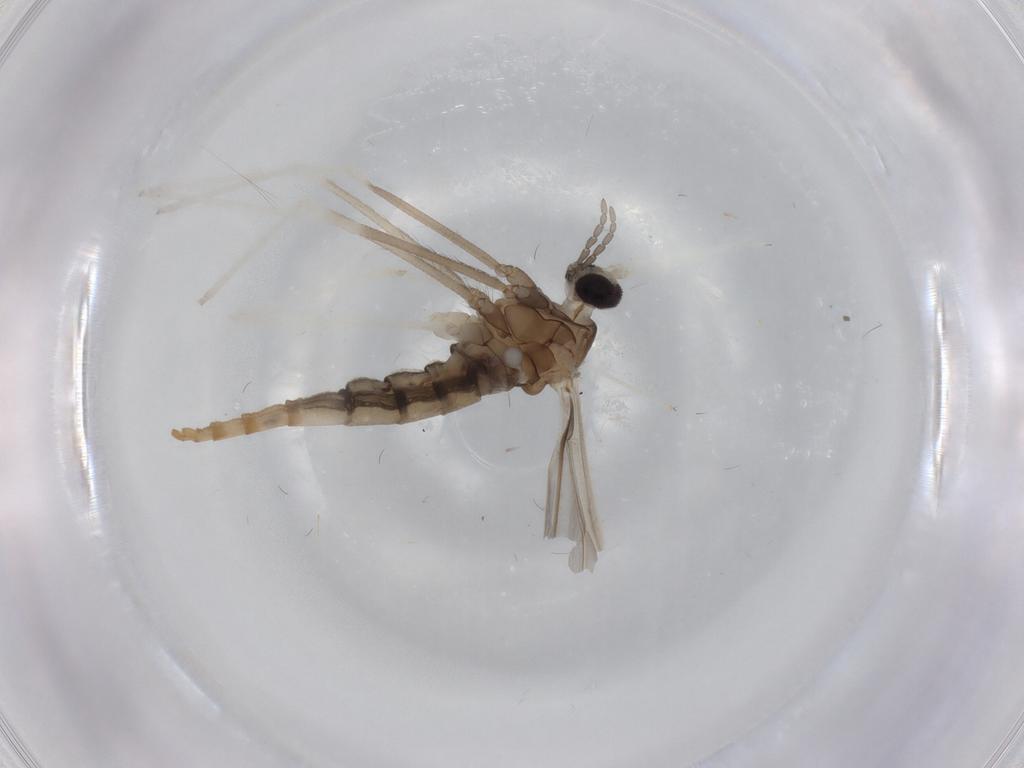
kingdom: Animalia
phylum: Arthropoda
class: Insecta
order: Diptera
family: Cecidomyiidae
